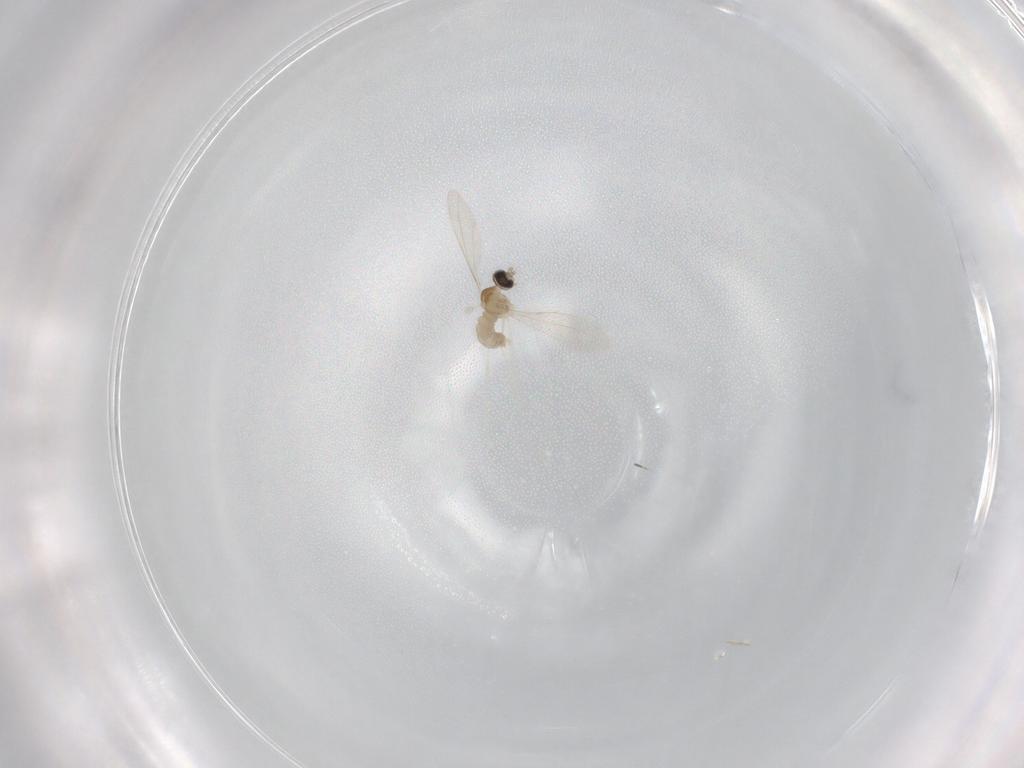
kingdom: Animalia
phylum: Arthropoda
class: Insecta
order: Diptera
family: Cecidomyiidae
